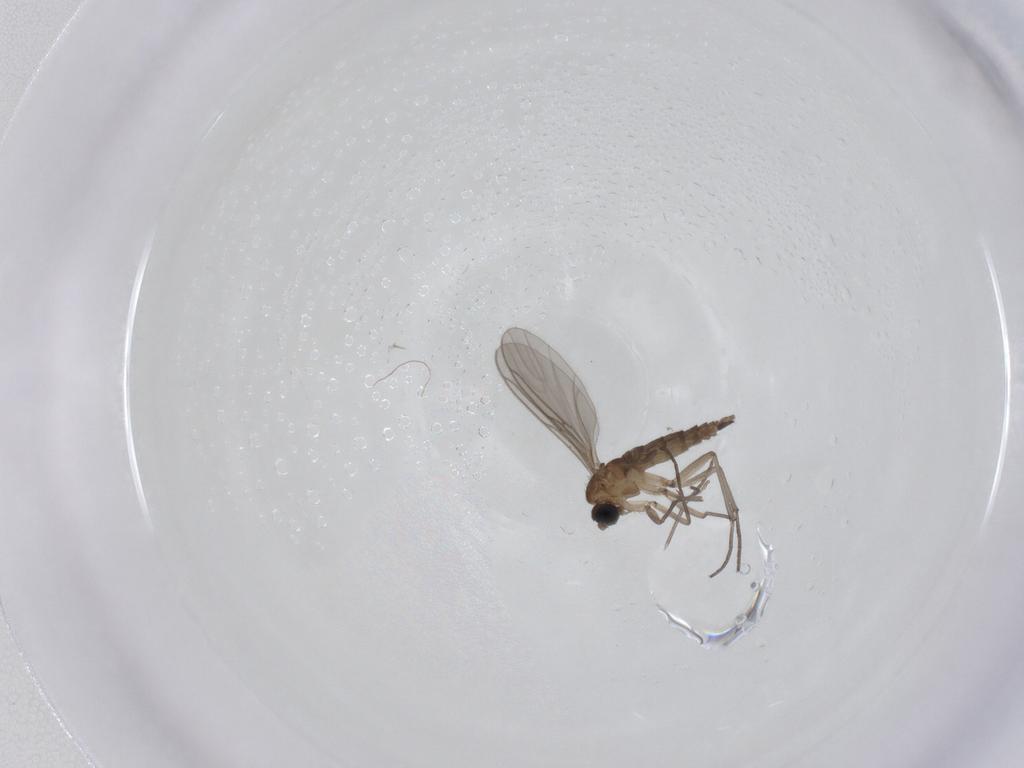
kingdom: Animalia
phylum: Arthropoda
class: Insecta
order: Diptera
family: Sciaridae
